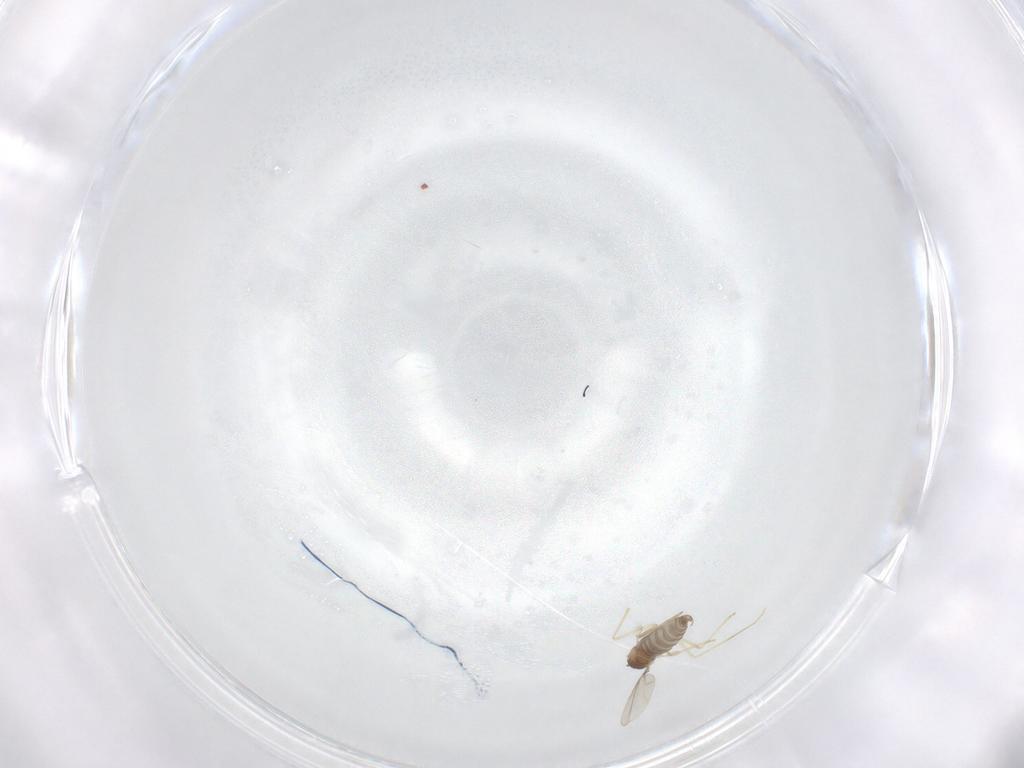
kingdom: Animalia
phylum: Arthropoda
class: Insecta
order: Diptera
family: Cecidomyiidae
